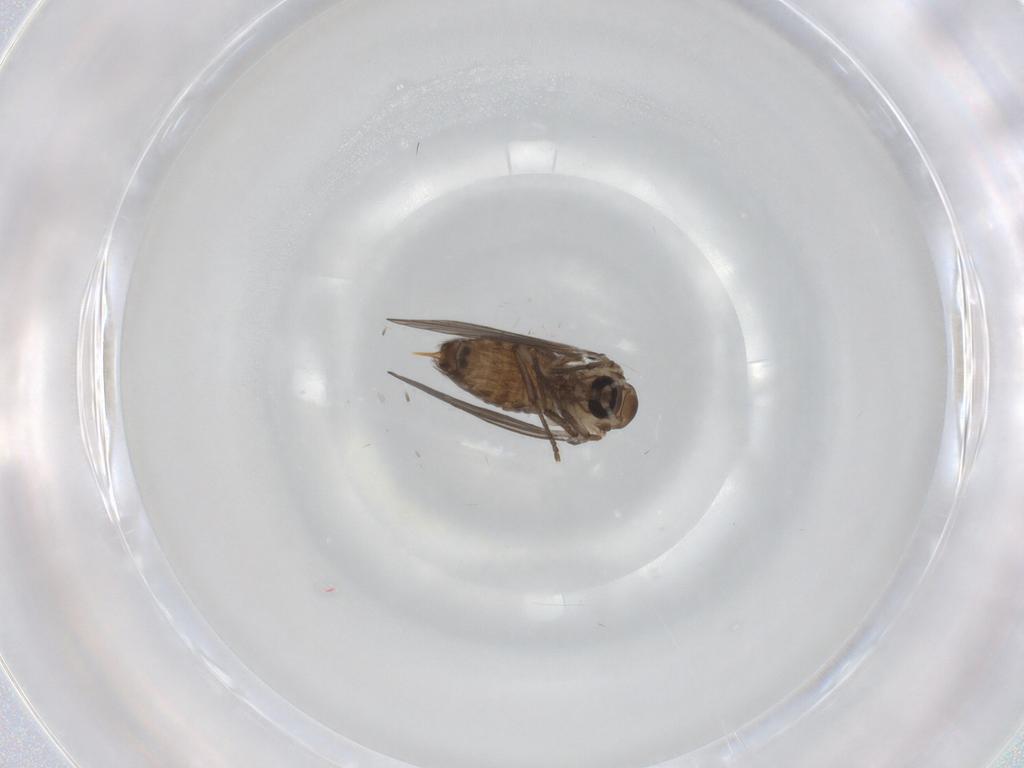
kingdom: Animalia
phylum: Arthropoda
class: Insecta
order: Diptera
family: Psychodidae
